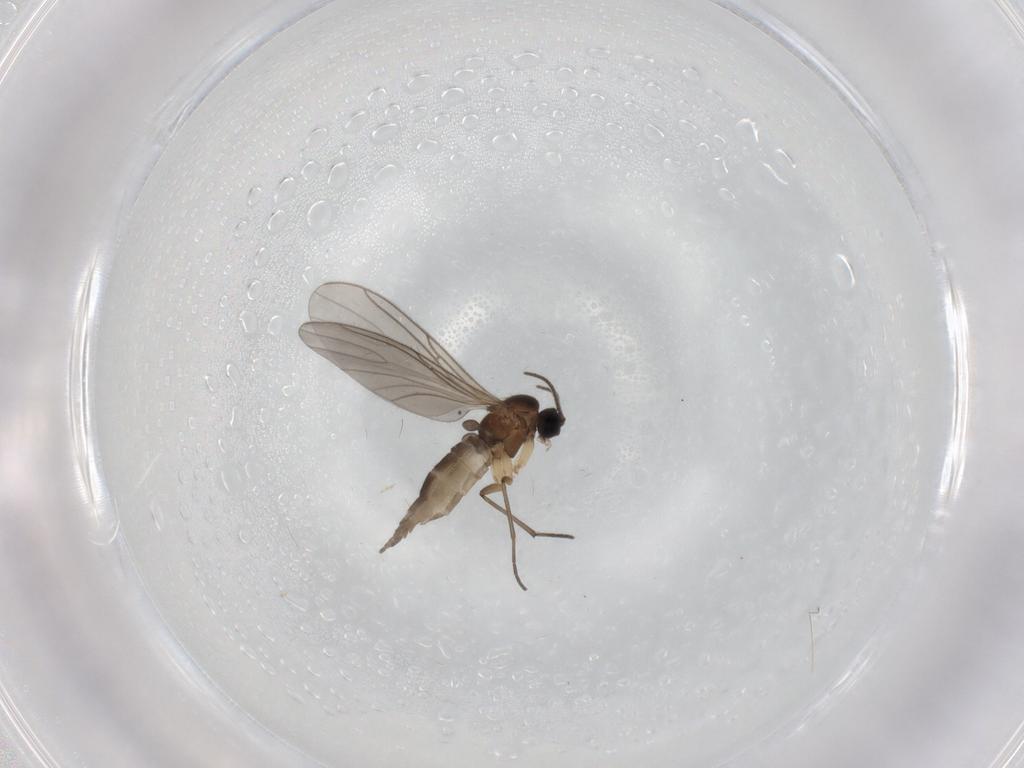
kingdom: Animalia
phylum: Arthropoda
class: Insecta
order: Diptera
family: Sciaridae
